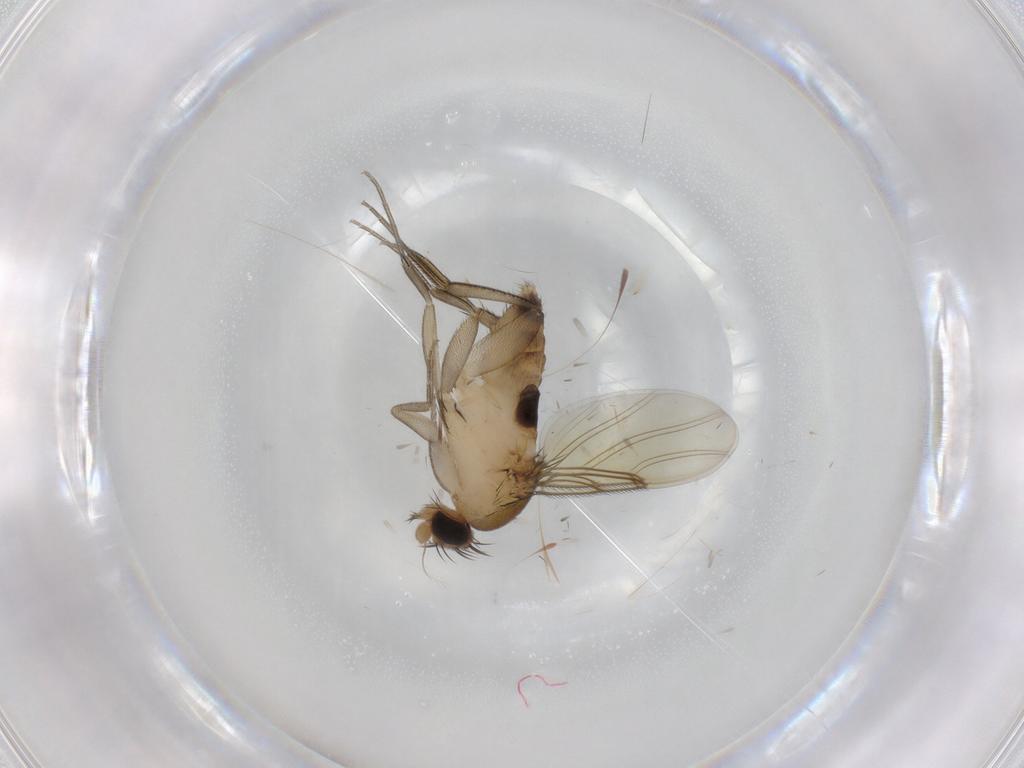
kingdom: Animalia
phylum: Arthropoda
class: Insecta
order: Diptera
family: Phoridae
